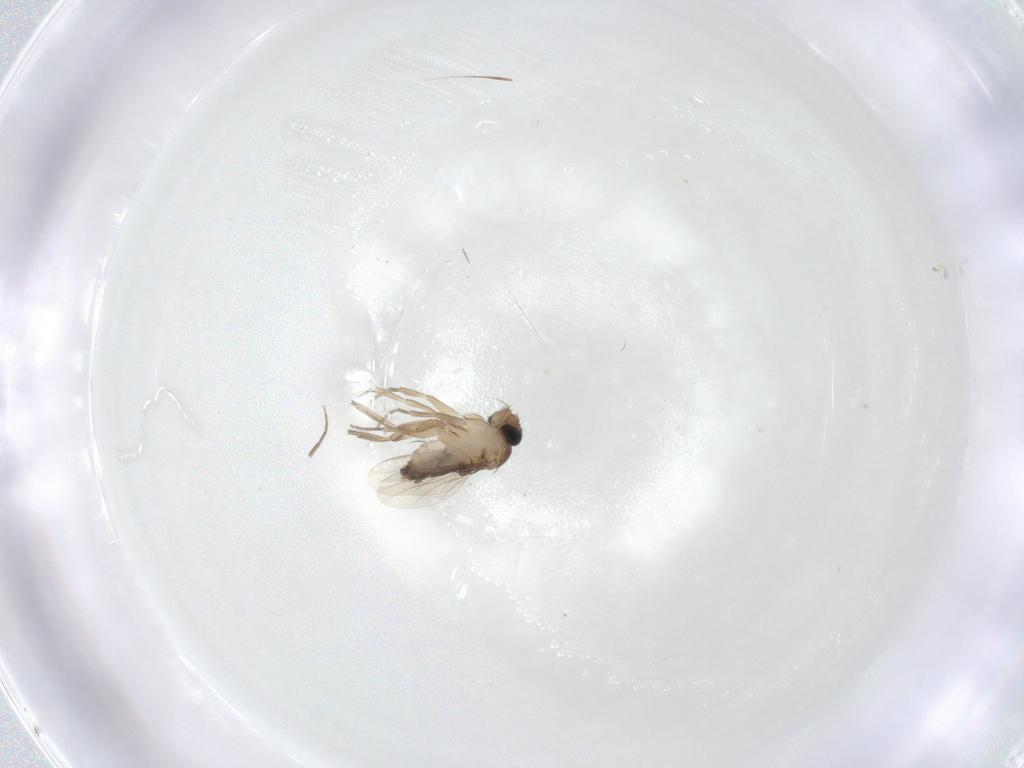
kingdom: Animalia
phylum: Arthropoda
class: Insecta
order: Diptera
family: Phoridae
